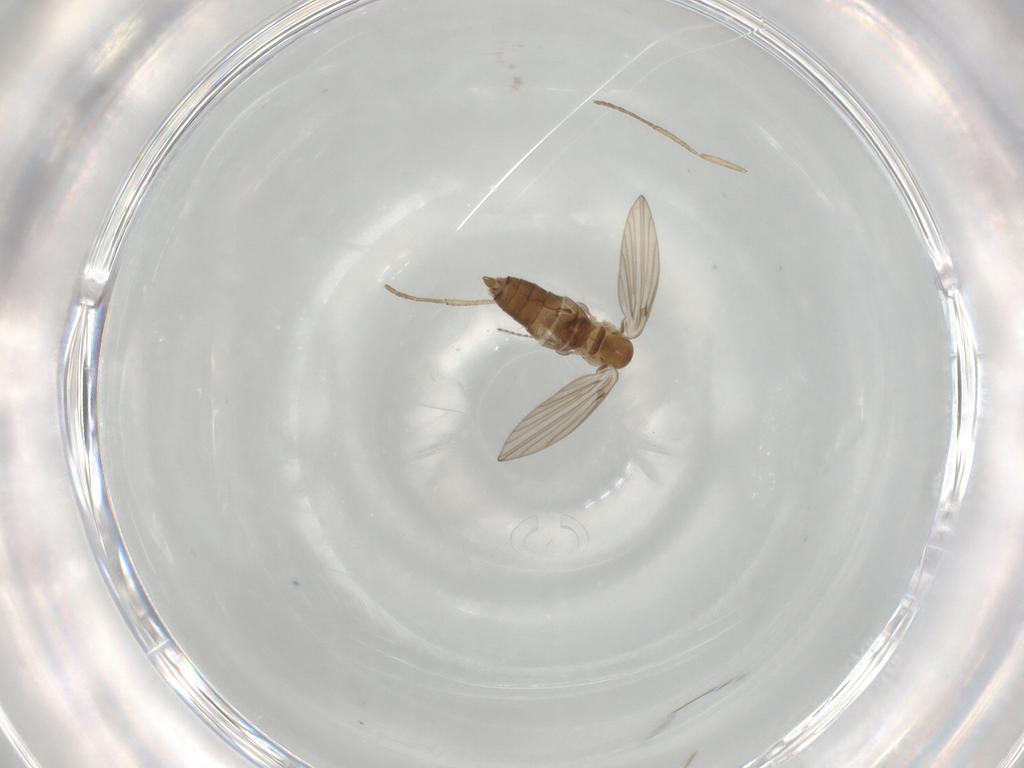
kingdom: Animalia
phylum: Arthropoda
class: Insecta
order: Diptera
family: Psychodidae
